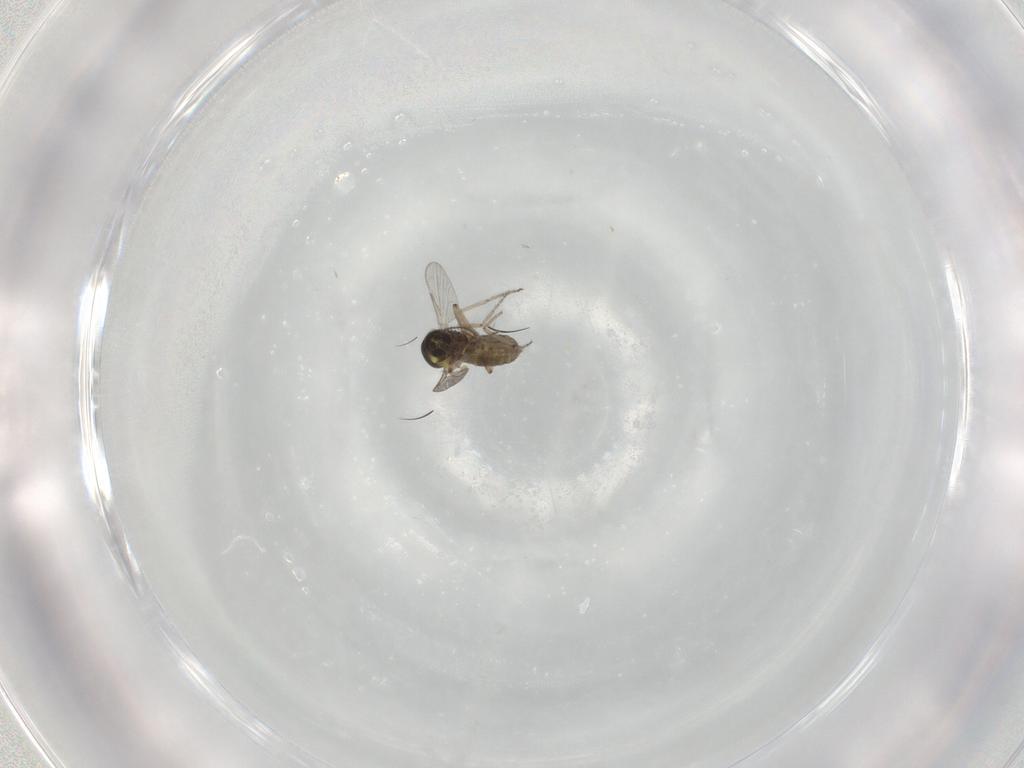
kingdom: Animalia
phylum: Arthropoda
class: Insecta
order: Diptera
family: Ceratopogonidae
